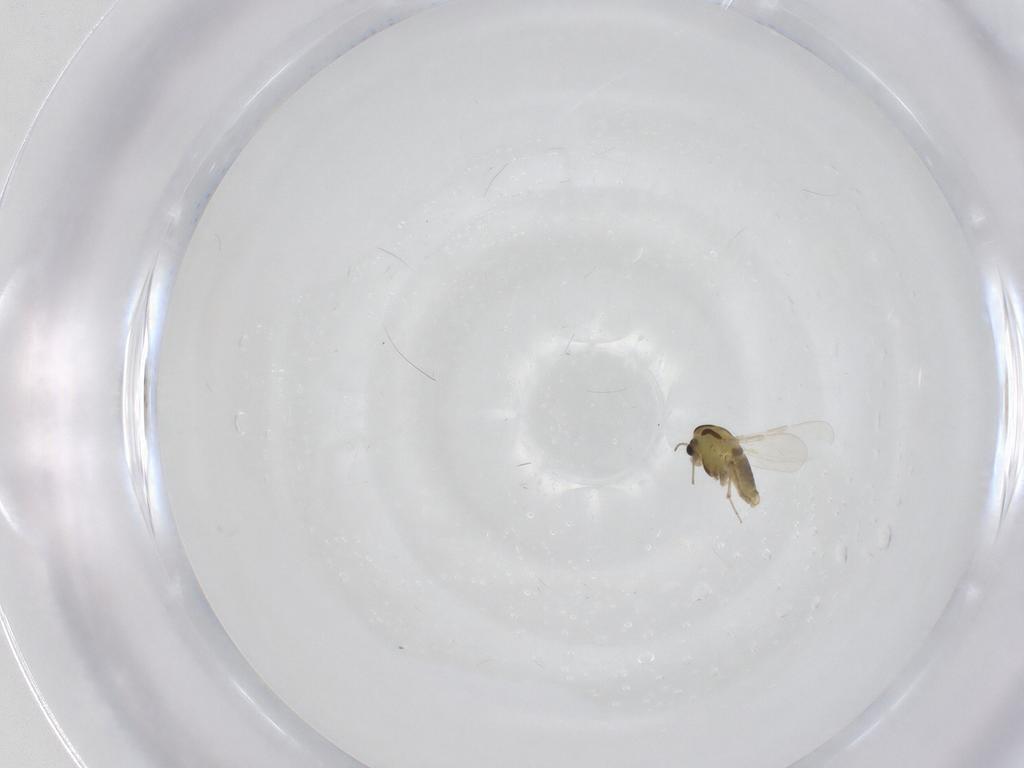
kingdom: Animalia
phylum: Arthropoda
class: Insecta
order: Diptera
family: Chironomidae
